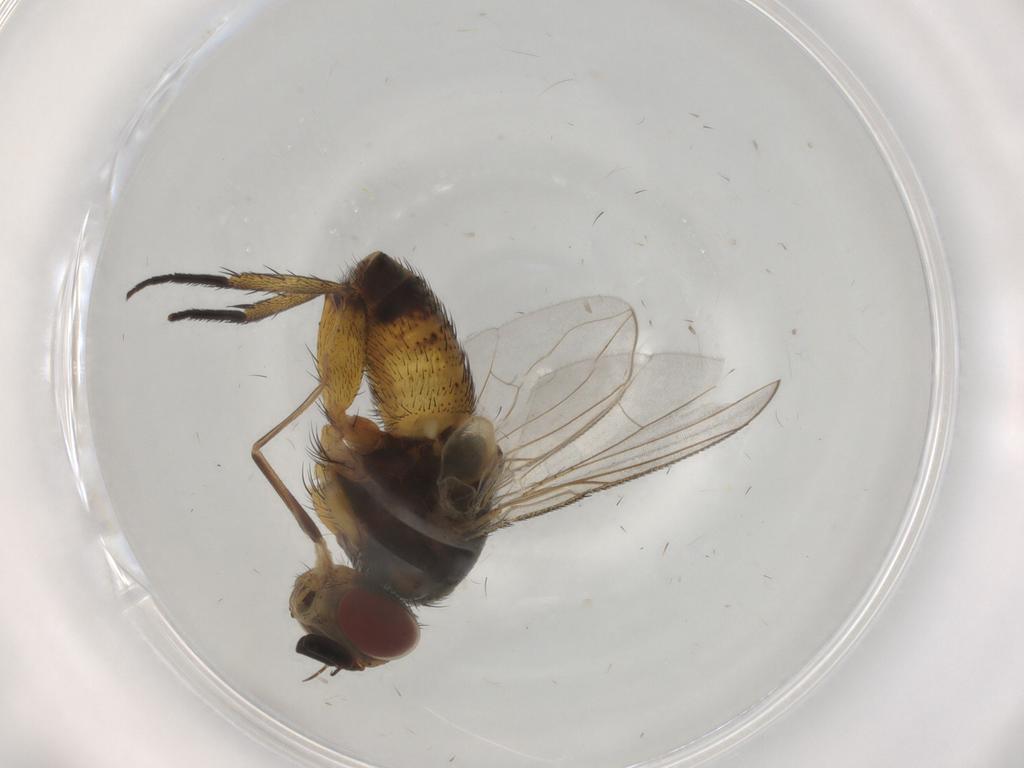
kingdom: Animalia
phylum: Arthropoda
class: Insecta
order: Diptera
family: Tachinidae
